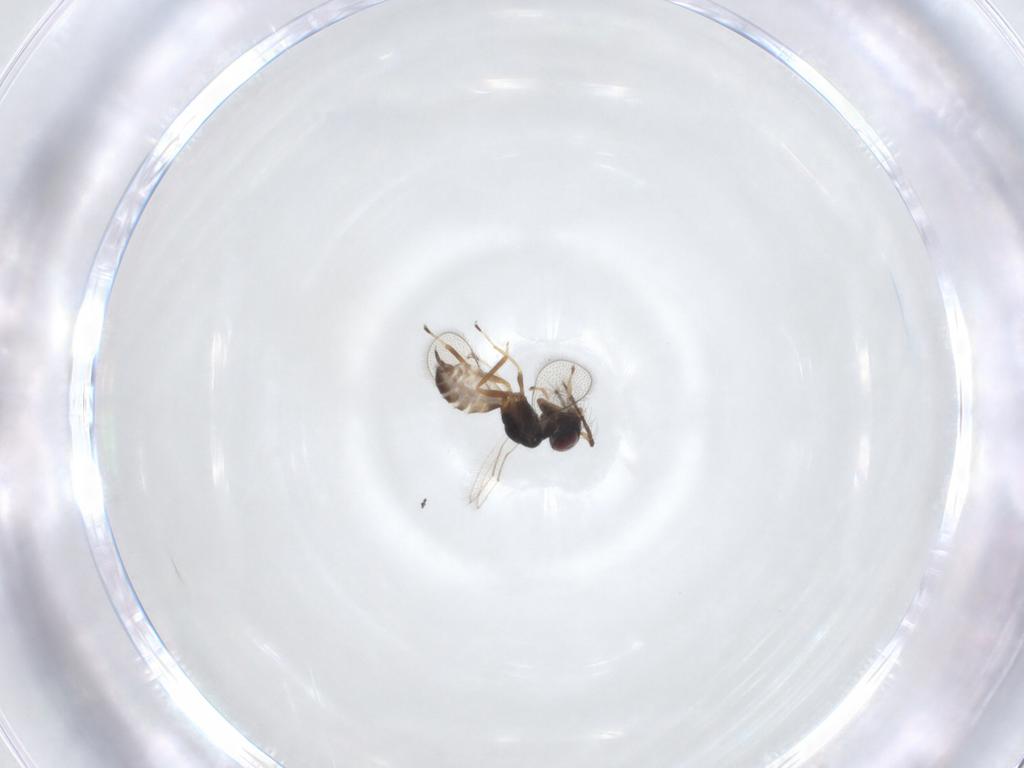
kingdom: Animalia
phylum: Arthropoda
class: Insecta
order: Hymenoptera
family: Eulophidae
